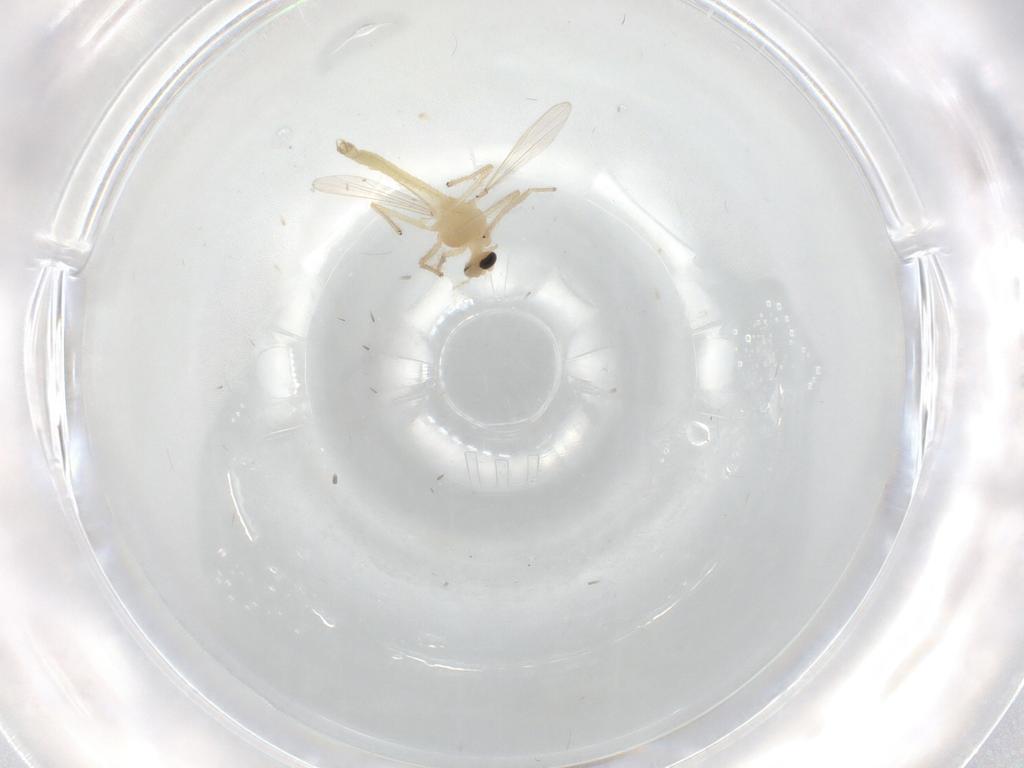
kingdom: Animalia
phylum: Arthropoda
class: Insecta
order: Diptera
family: Chironomidae
